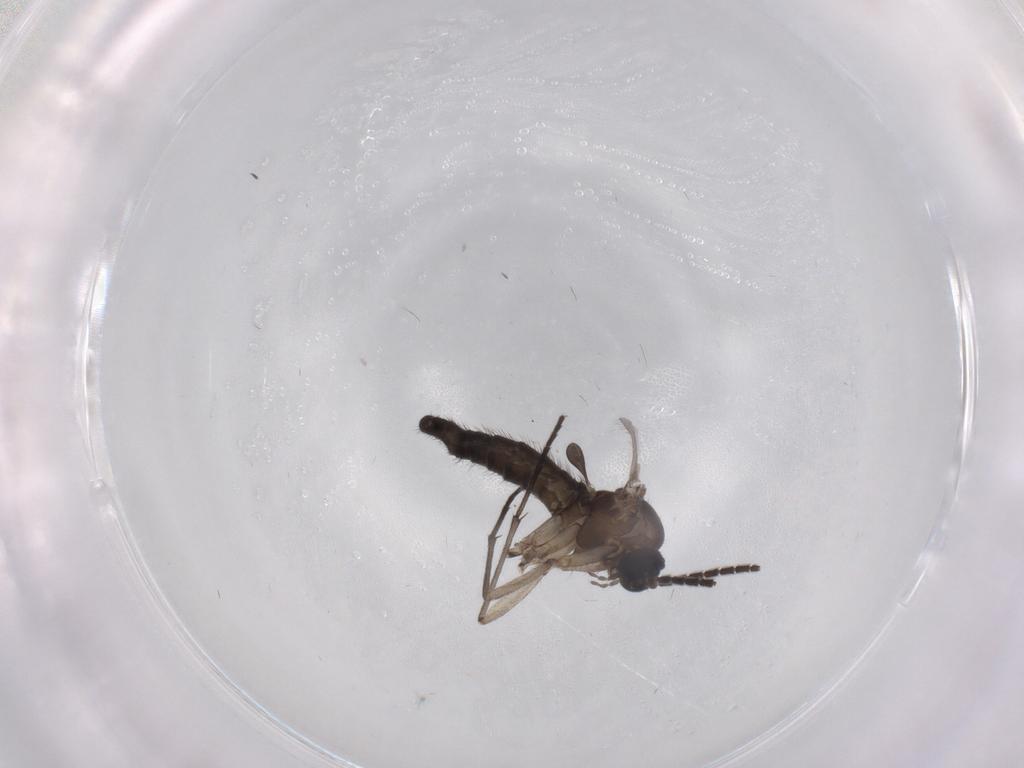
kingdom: Animalia
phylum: Arthropoda
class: Insecta
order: Diptera
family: Sciaridae
